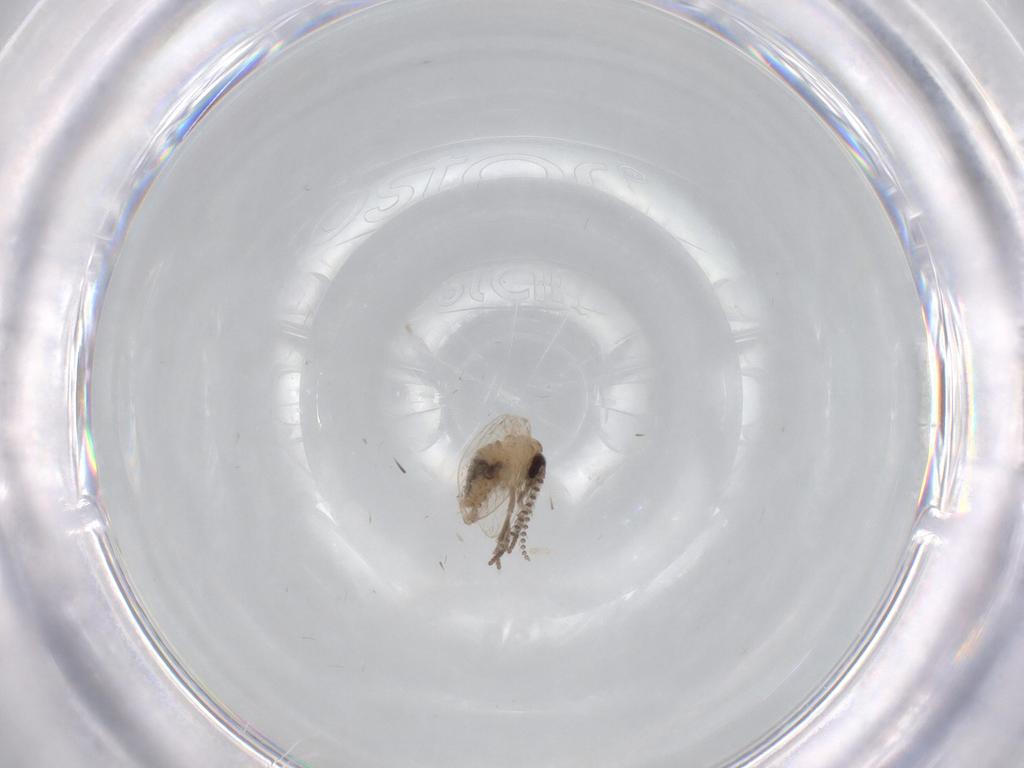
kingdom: Animalia
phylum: Arthropoda
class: Insecta
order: Diptera
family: Psychodidae
